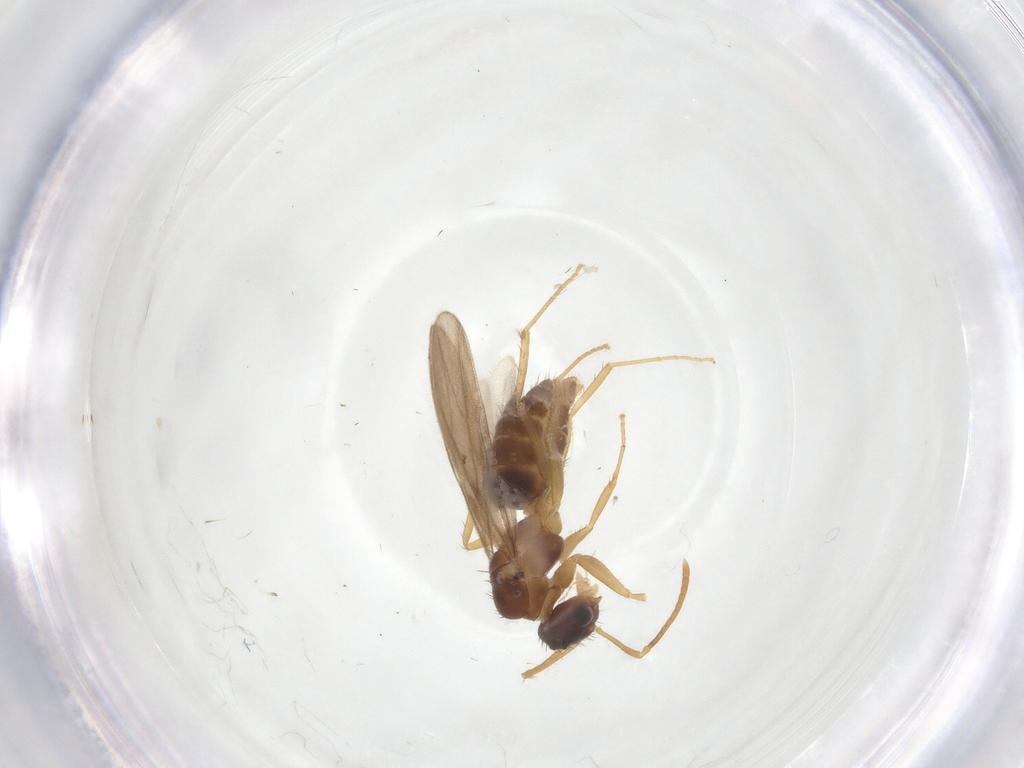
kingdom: Animalia
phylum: Arthropoda
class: Insecta
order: Hymenoptera
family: Formicidae
